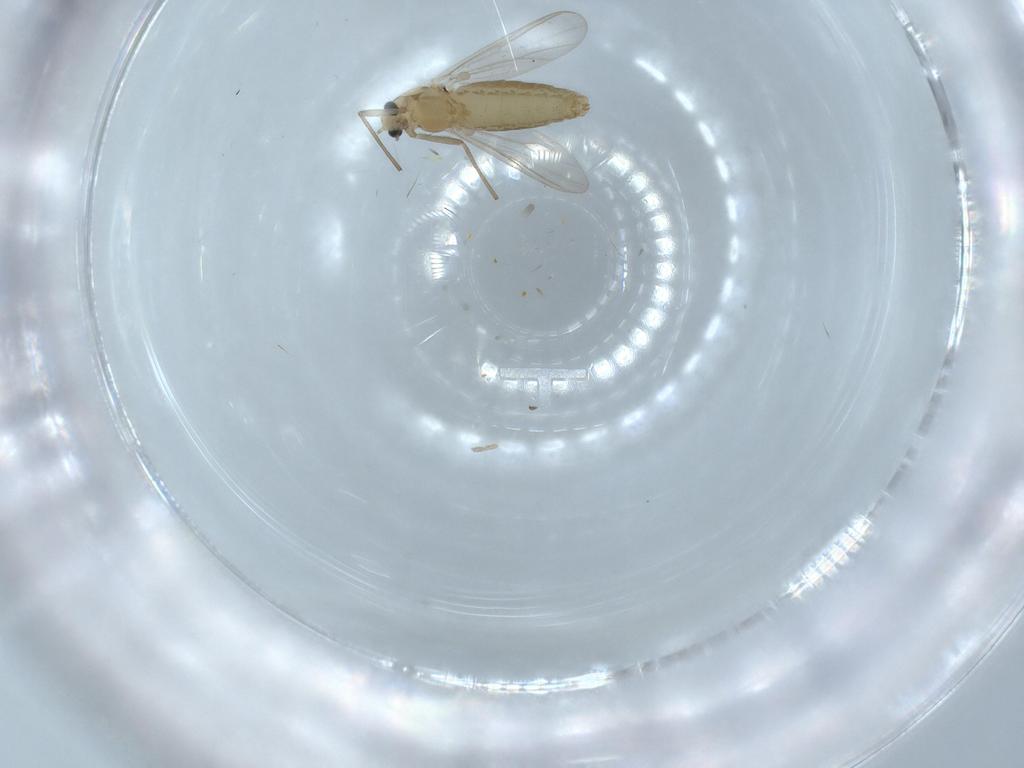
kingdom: Animalia
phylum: Arthropoda
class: Insecta
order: Diptera
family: Chironomidae
